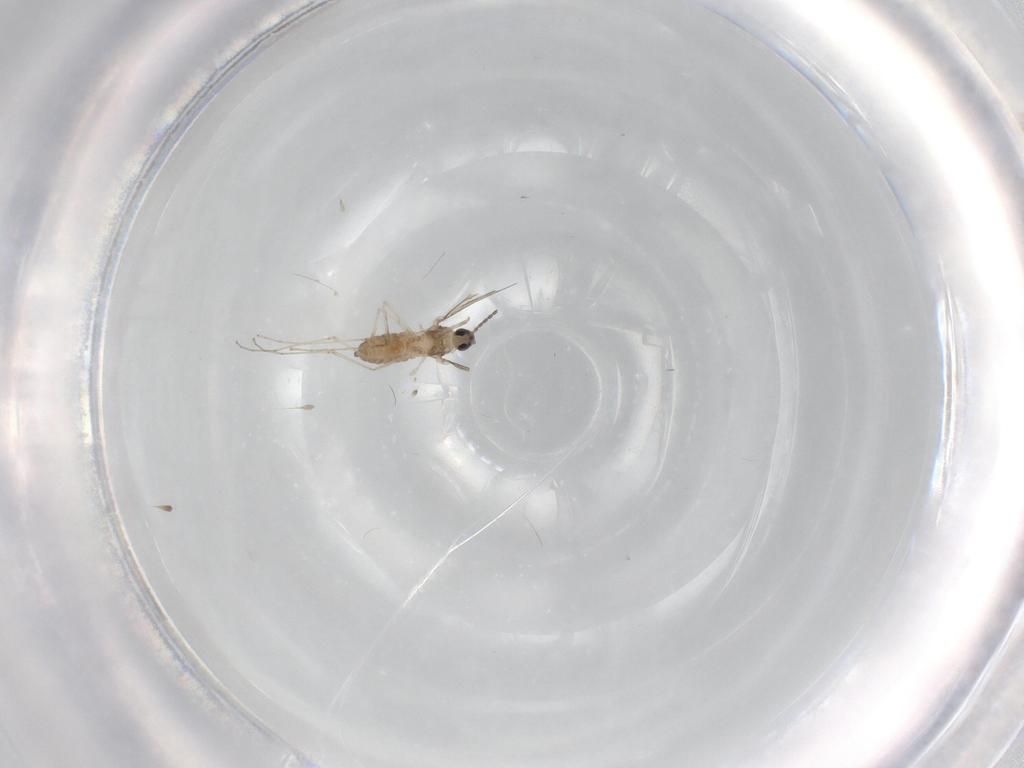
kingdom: Animalia
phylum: Arthropoda
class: Insecta
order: Diptera
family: Cecidomyiidae
